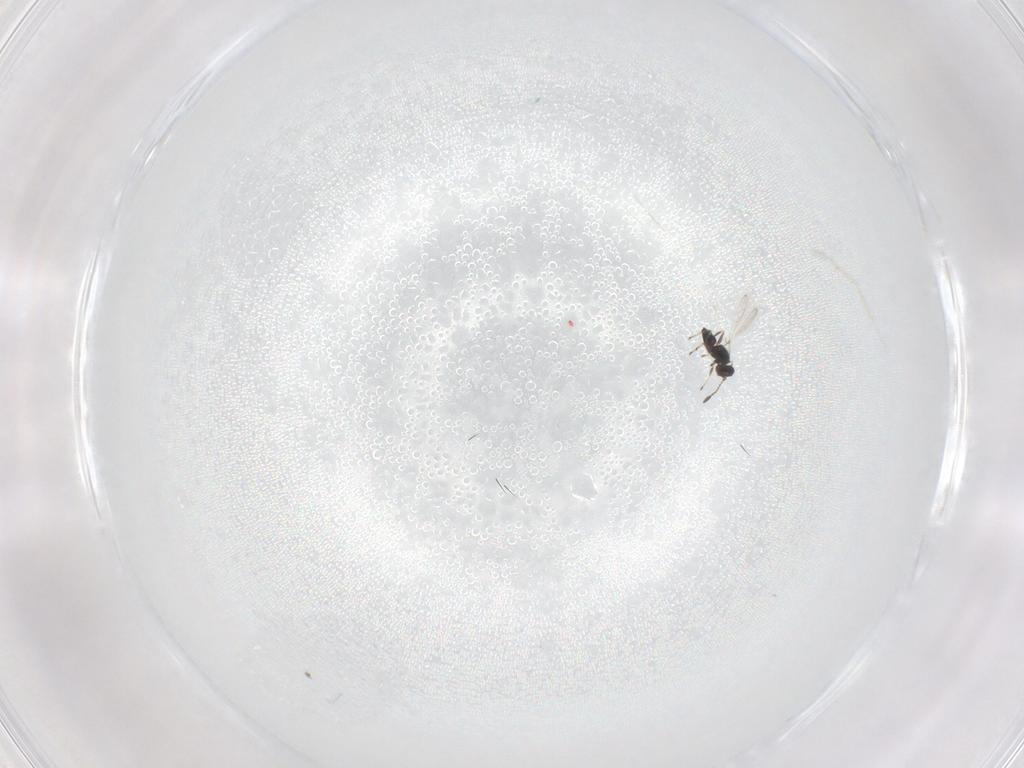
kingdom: Animalia
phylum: Arthropoda
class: Insecta
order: Hymenoptera
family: Mymaridae
